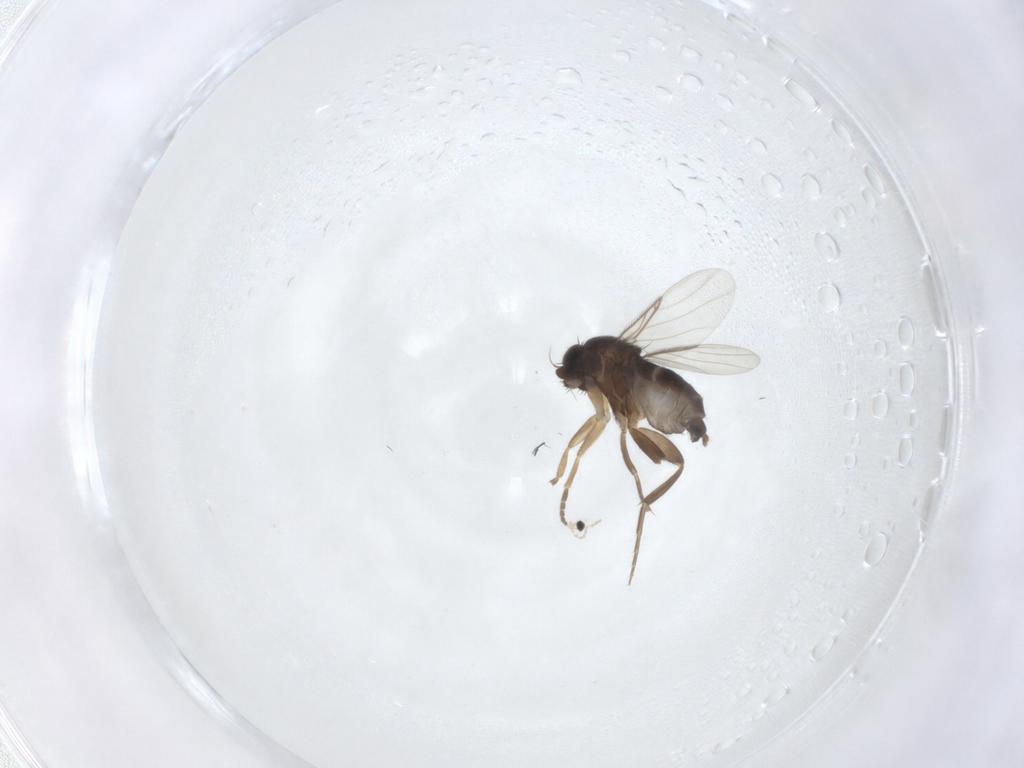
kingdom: Animalia
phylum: Arthropoda
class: Insecta
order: Diptera
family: Phoridae
